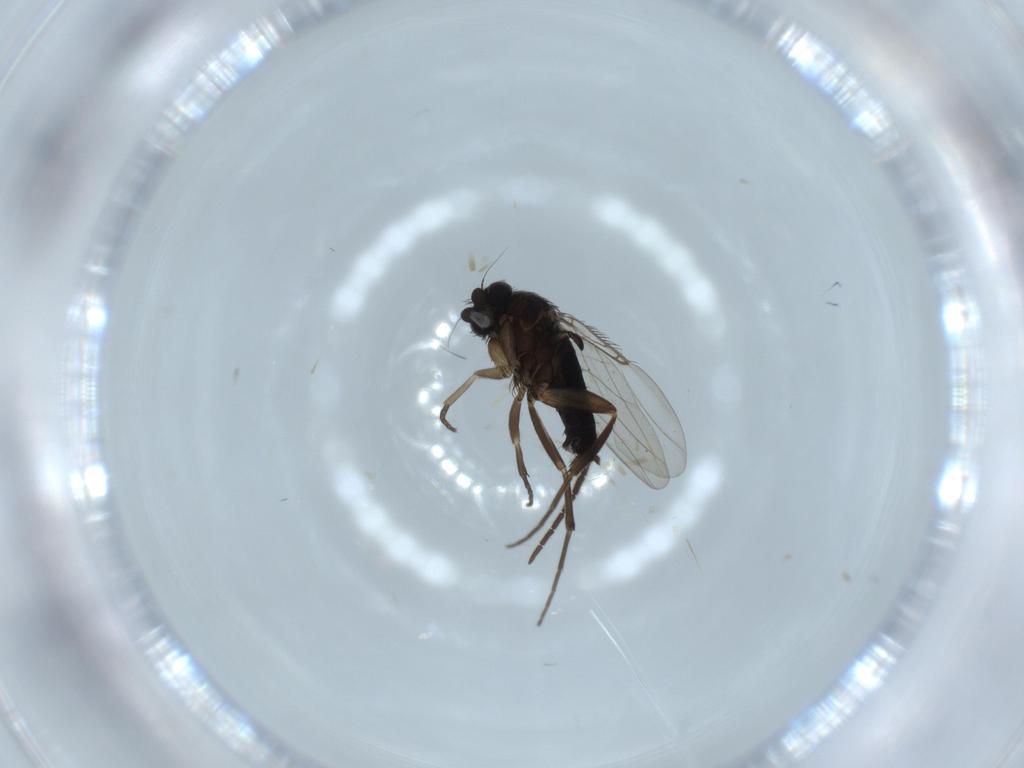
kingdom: Animalia
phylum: Arthropoda
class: Insecta
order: Diptera
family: Phoridae
